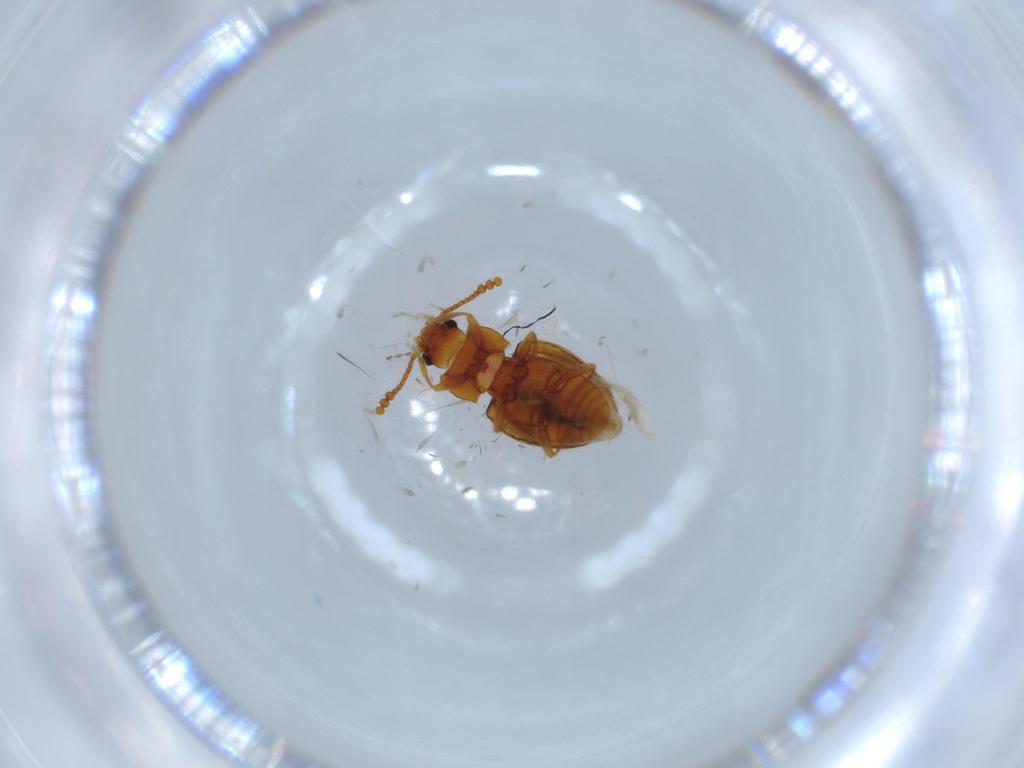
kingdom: Animalia
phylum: Arthropoda
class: Insecta
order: Coleoptera
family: Lampyridae
